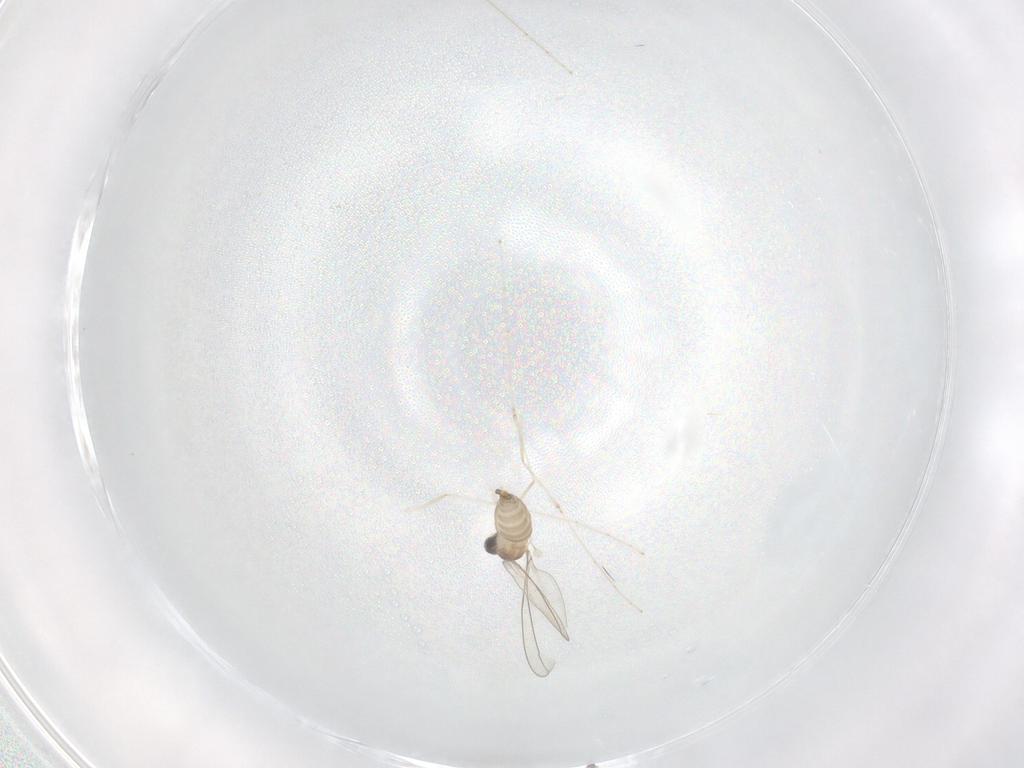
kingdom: Animalia
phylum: Arthropoda
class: Insecta
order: Diptera
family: Cecidomyiidae
